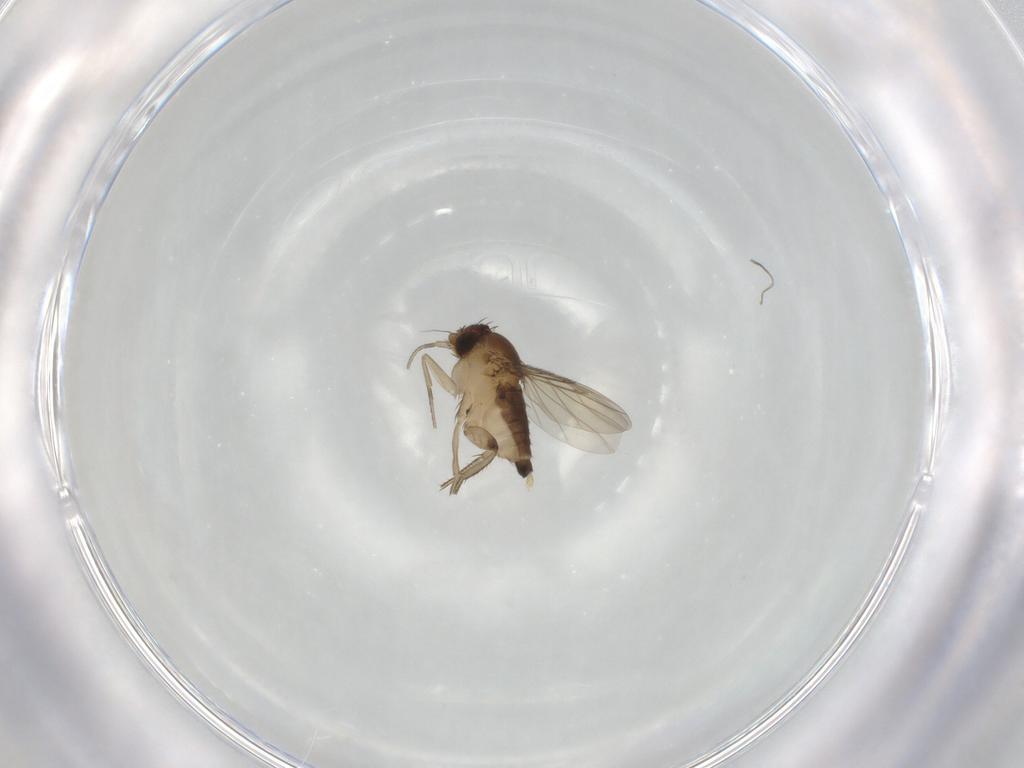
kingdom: Animalia
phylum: Arthropoda
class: Insecta
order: Diptera
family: Phoridae
